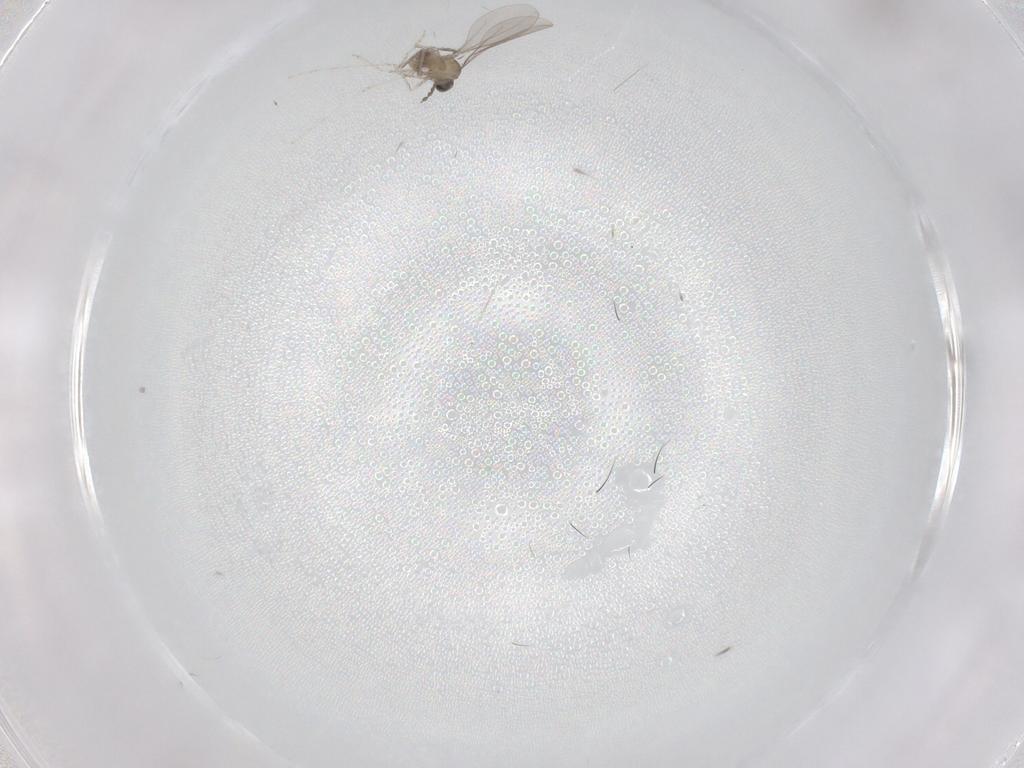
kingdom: Animalia
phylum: Arthropoda
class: Insecta
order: Diptera
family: Cecidomyiidae
